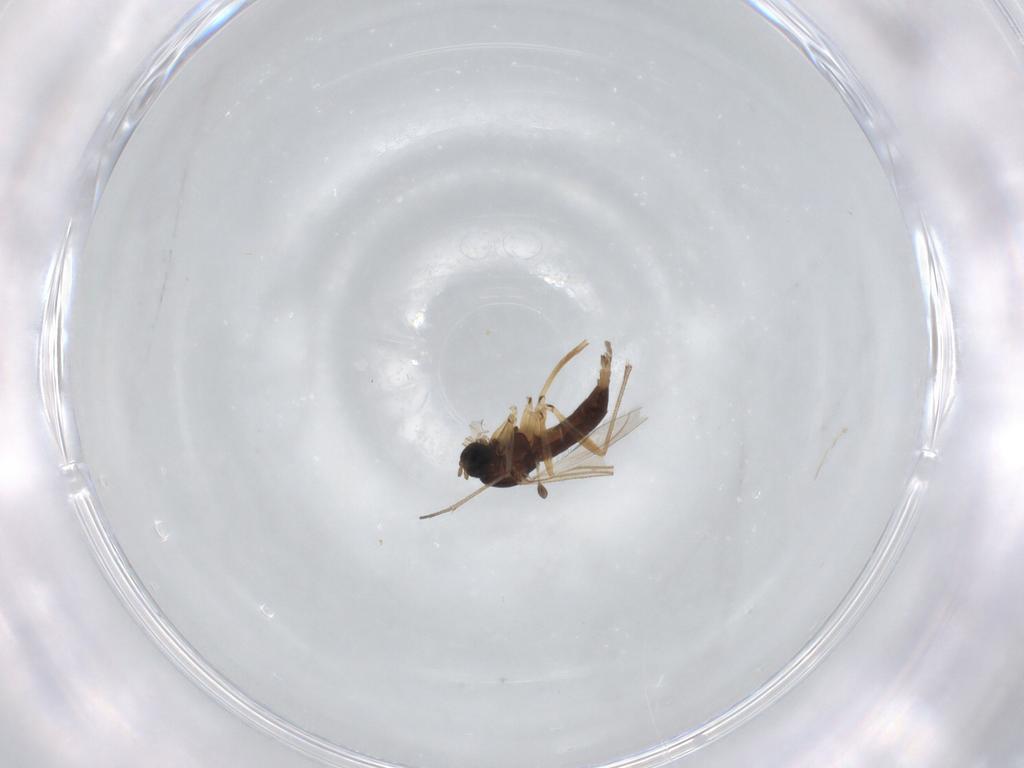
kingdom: Animalia
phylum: Arthropoda
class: Insecta
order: Diptera
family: Sciaridae
